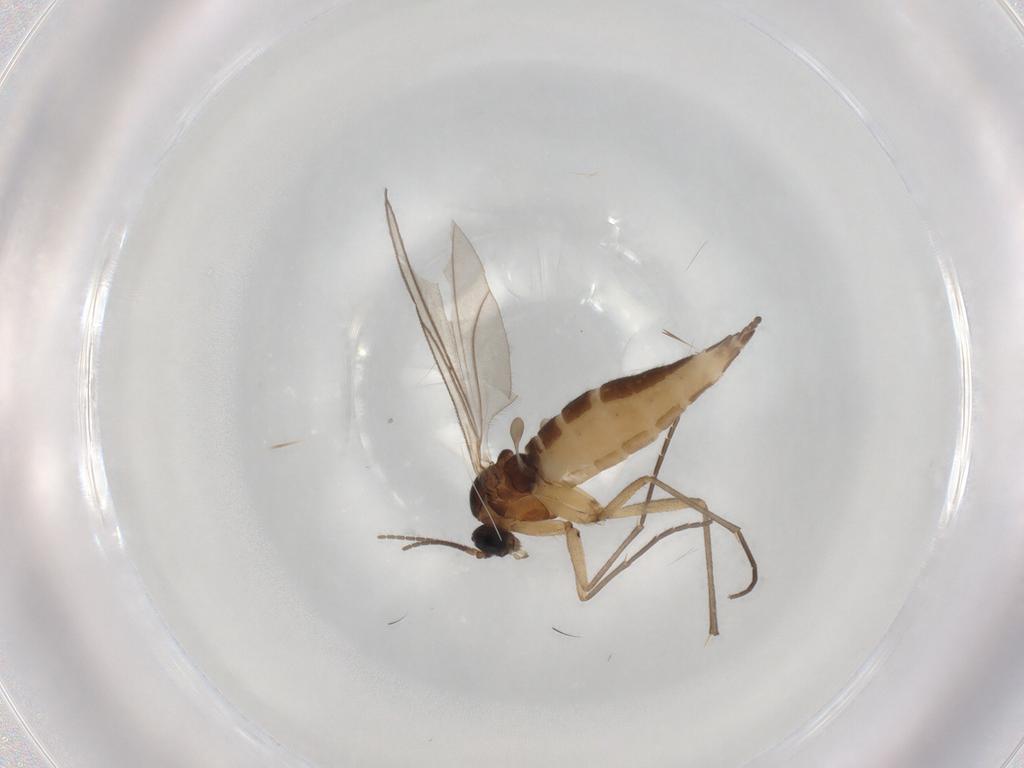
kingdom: Animalia
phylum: Arthropoda
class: Insecta
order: Diptera
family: Sciaridae
